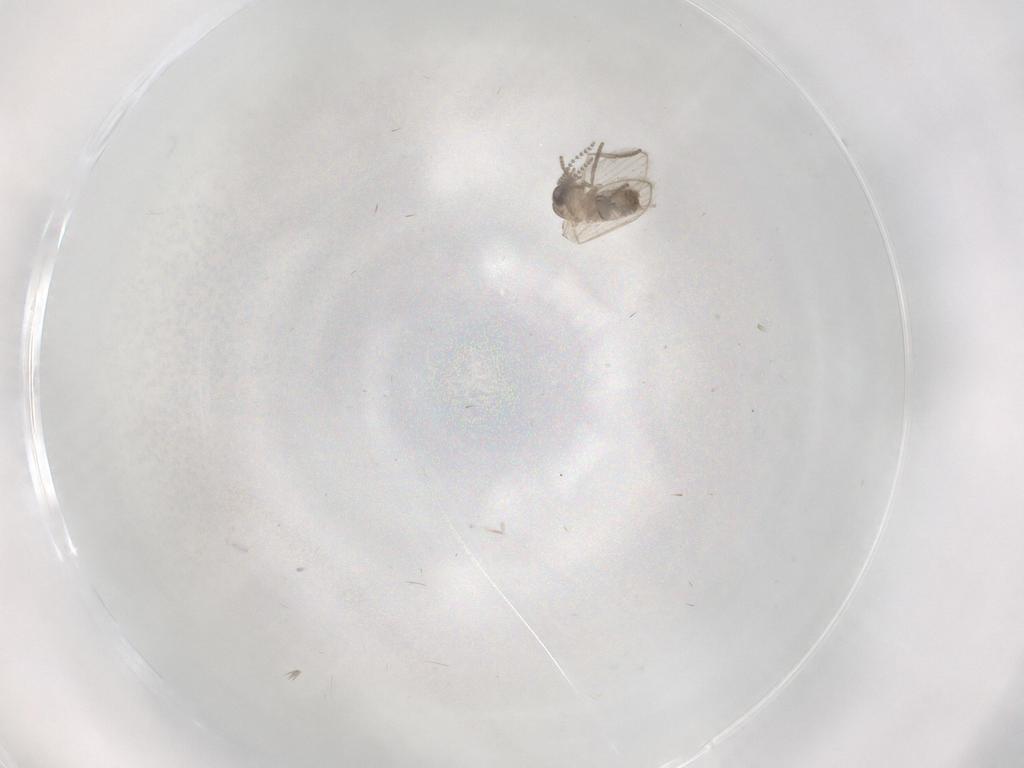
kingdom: Animalia
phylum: Arthropoda
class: Insecta
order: Diptera
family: Psychodidae
